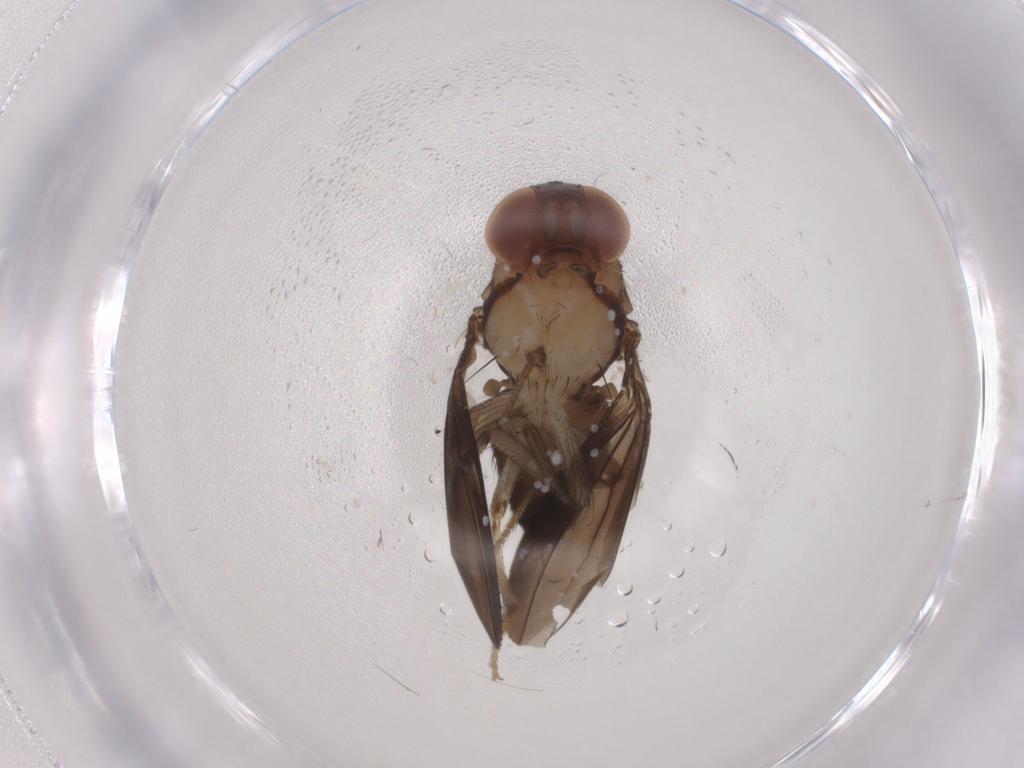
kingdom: Animalia
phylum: Arthropoda
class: Insecta
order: Diptera
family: Drosophilidae
